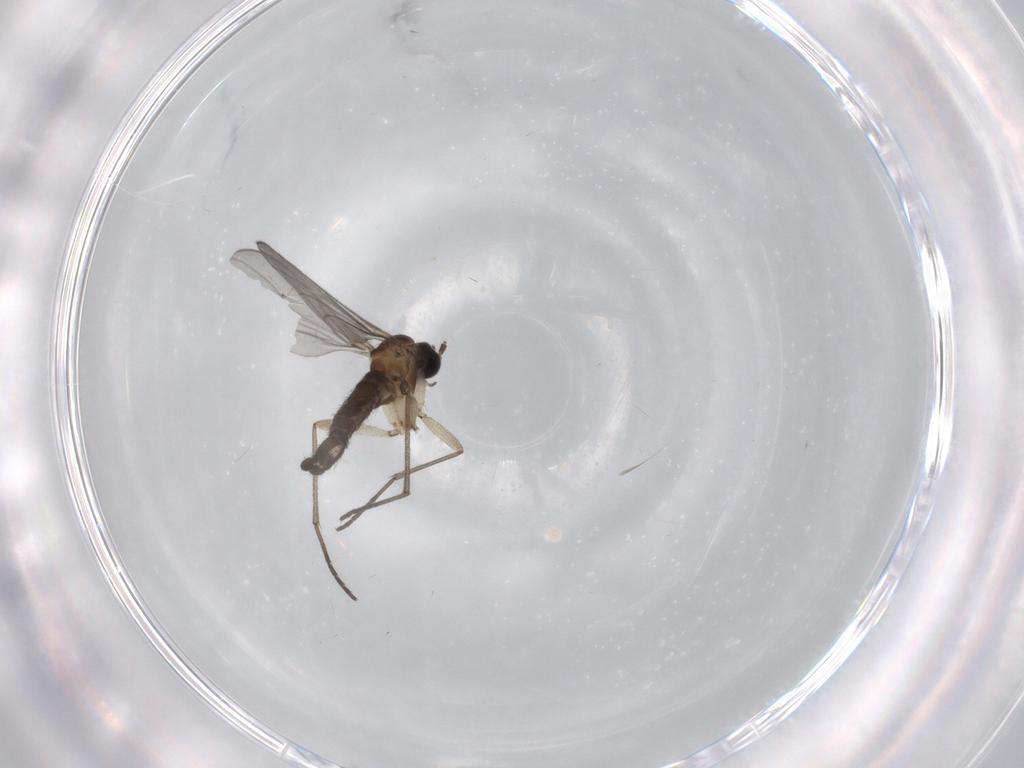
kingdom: Animalia
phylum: Arthropoda
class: Insecta
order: Diptera
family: Sciaridae
